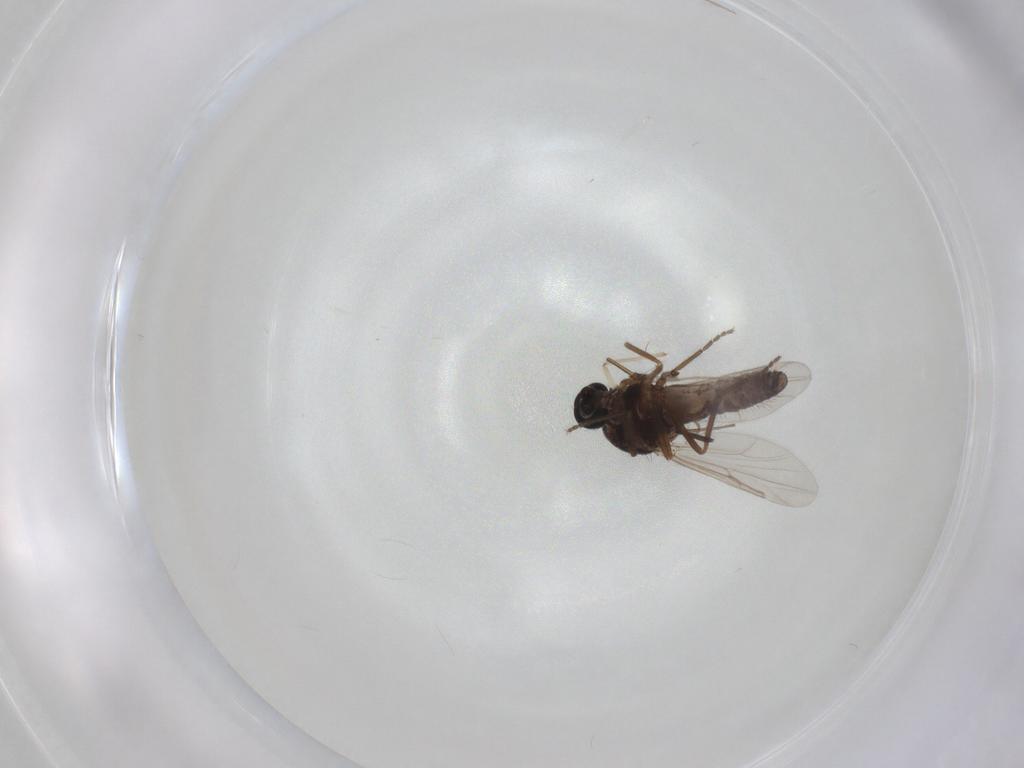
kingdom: Animalia
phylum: Arthropoda
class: Insecta
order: Diptera
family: Ceratopogonidae
